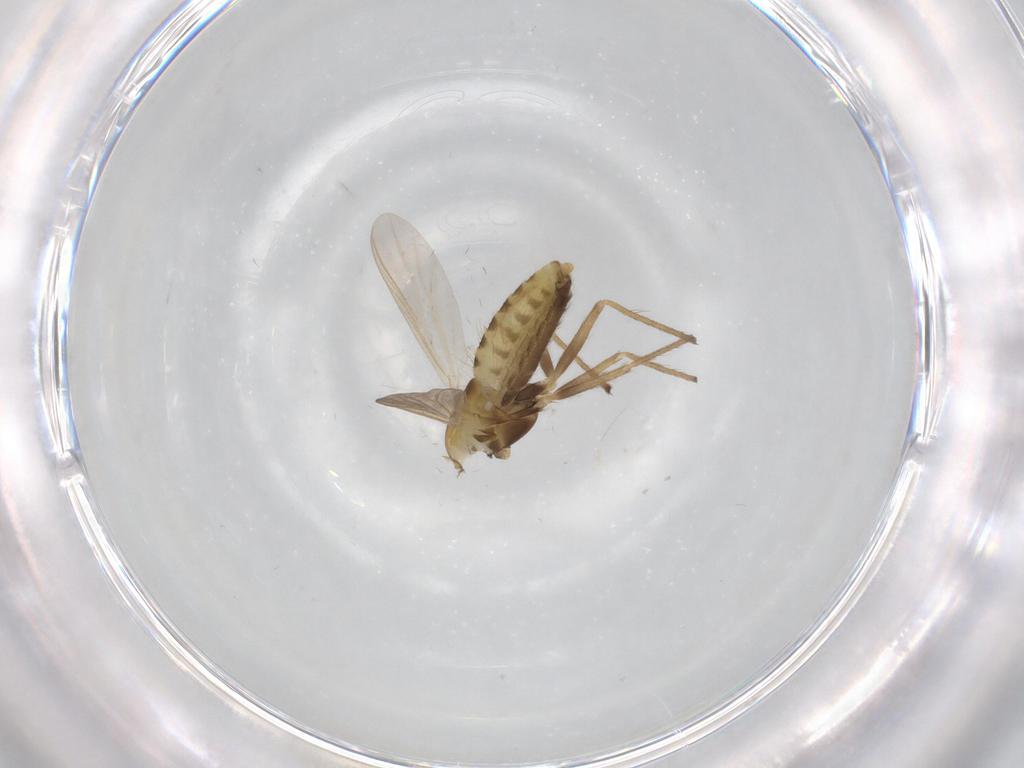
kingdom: Animalia
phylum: Arthropoda
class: Insecta
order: Diptera
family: Chironomidae
